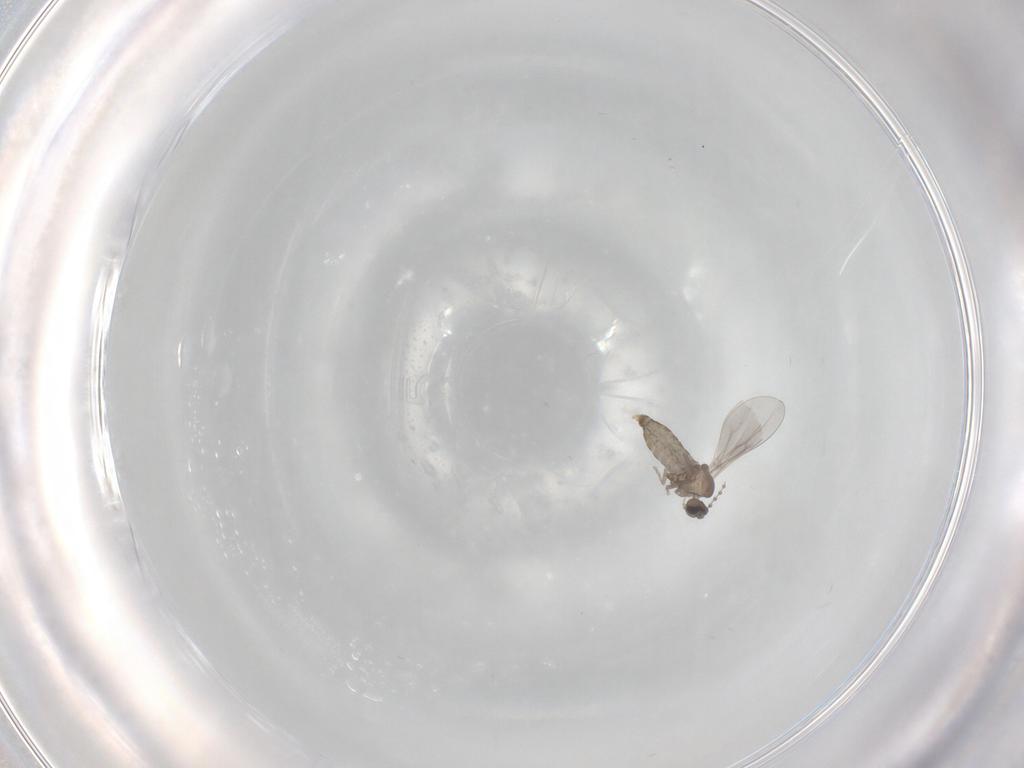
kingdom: Animalia
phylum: Arthropoda
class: Insecta
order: Diptera
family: Cecidomyiidae
